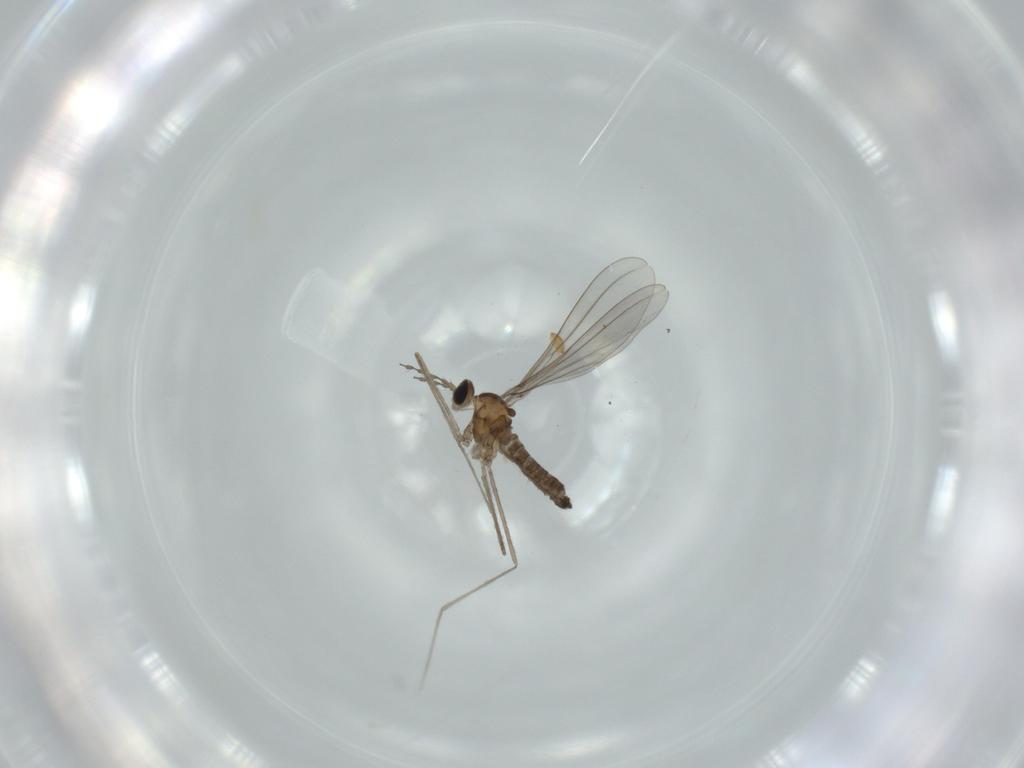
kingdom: Animalia
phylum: Arthropoda
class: Insecta
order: Diptera
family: Cecidomyiidae
